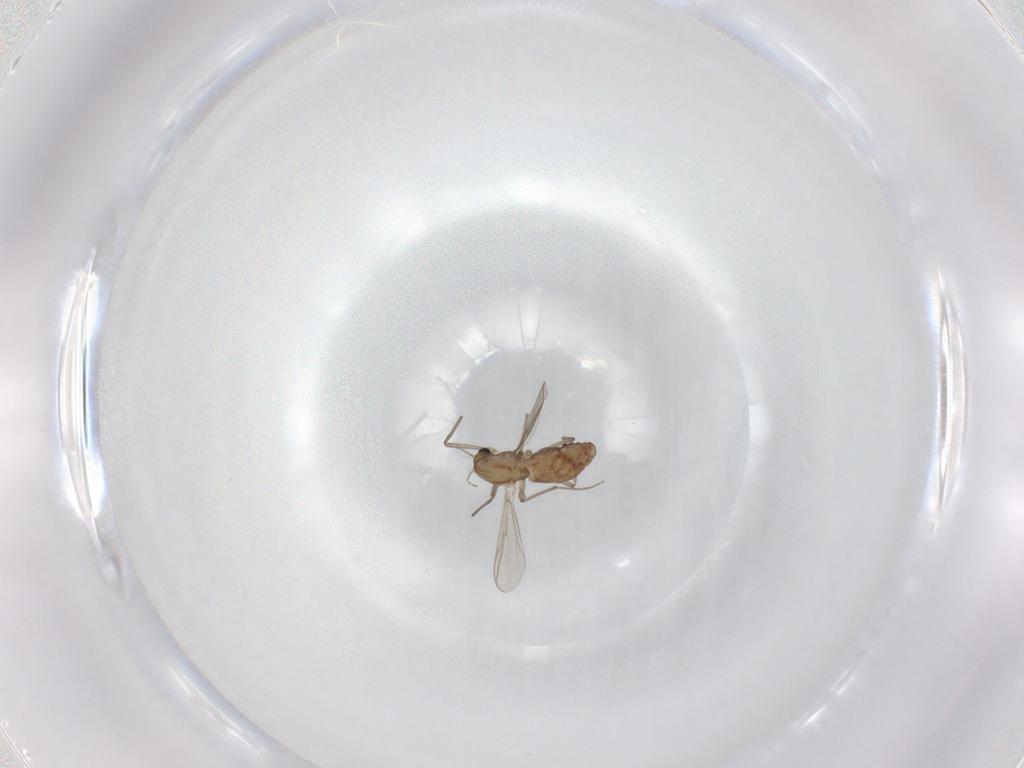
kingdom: Animalia
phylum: Arthropoda
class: Insecta
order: Diptera
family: Chironomidae
